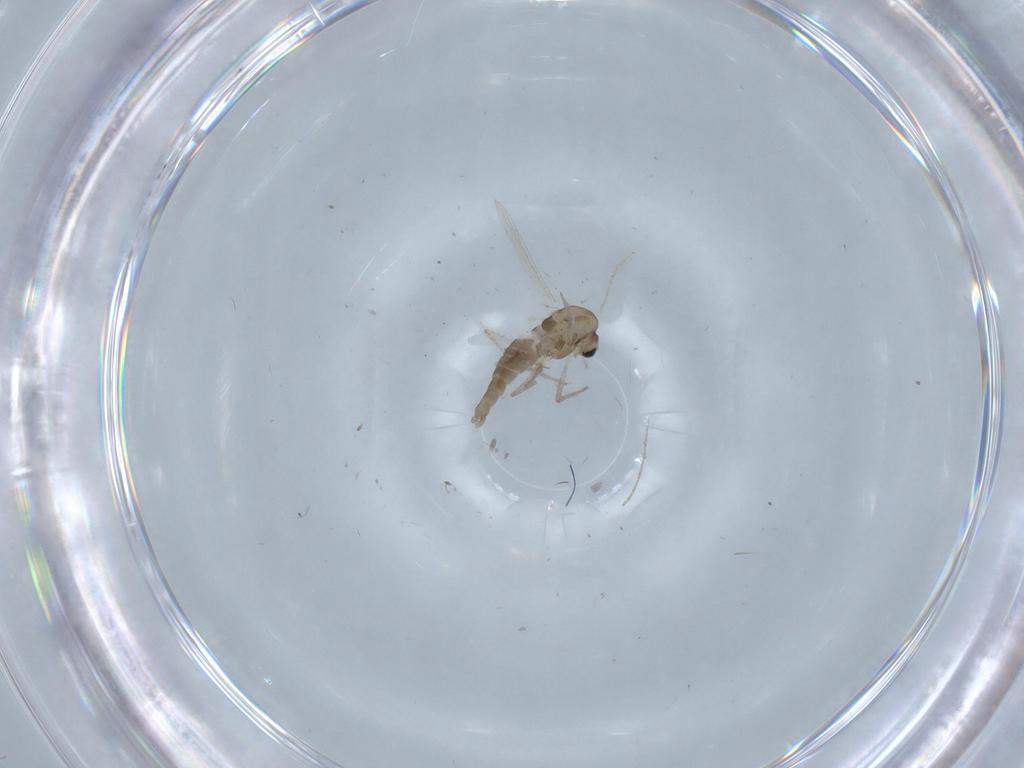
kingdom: Animalia
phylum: Arthropoda
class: Insecta
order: Diptera
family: Chironomidae
